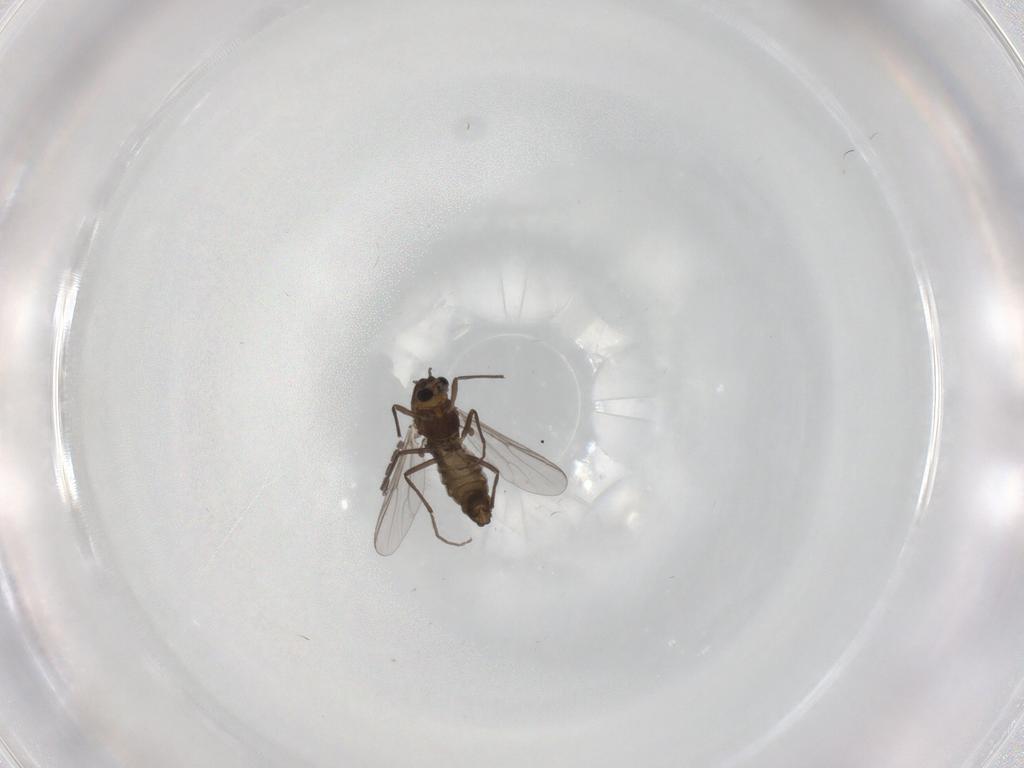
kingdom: Animalia
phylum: Arthropoda
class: Insecta
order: Diptera
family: Chironomidae
